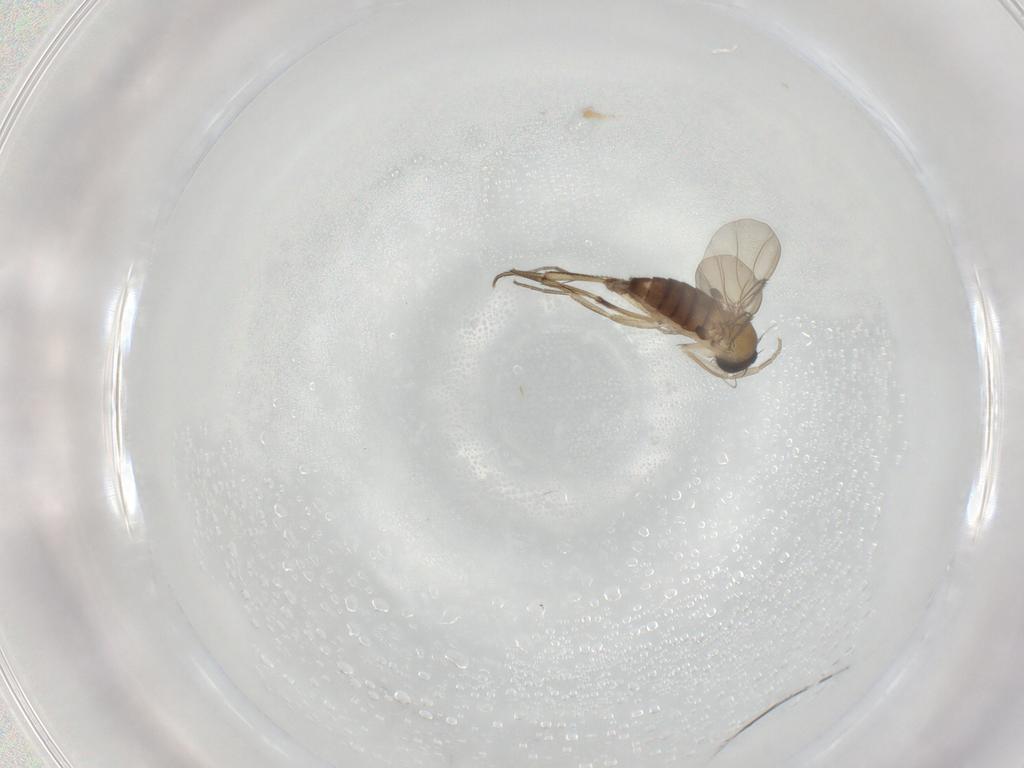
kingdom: Animalia
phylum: Arthropoda
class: Insecta
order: Diptera
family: Phoridae
